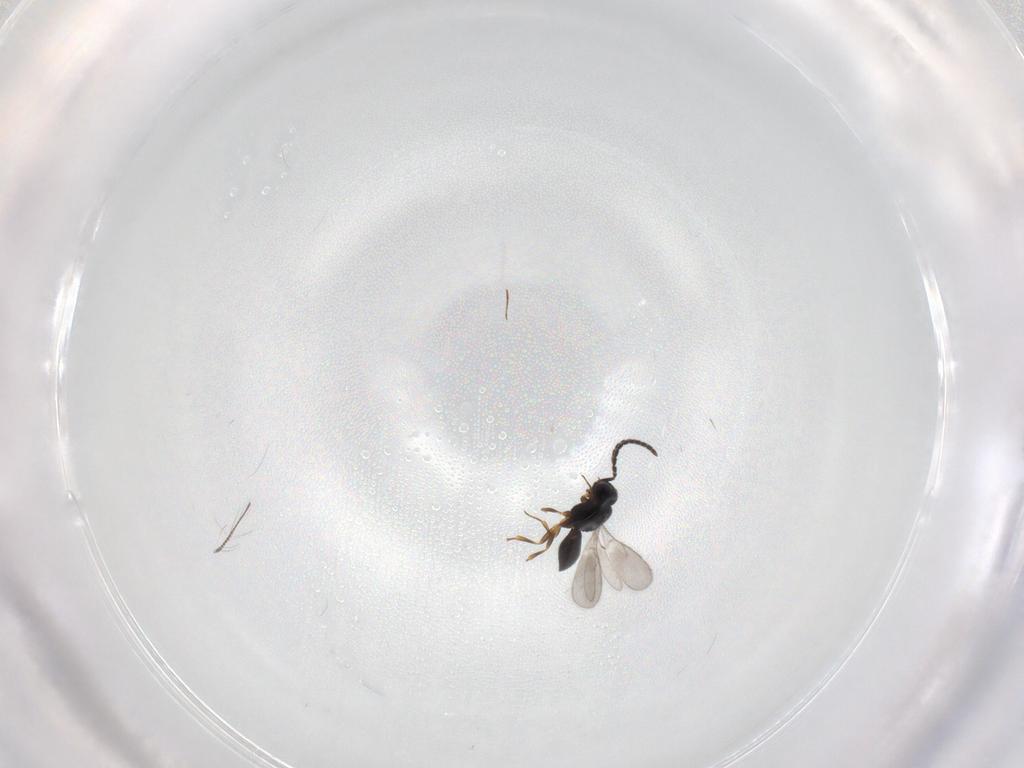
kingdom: Animalia
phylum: Arthropoda
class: Insecta
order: Hymenoptera
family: Scelionidae
